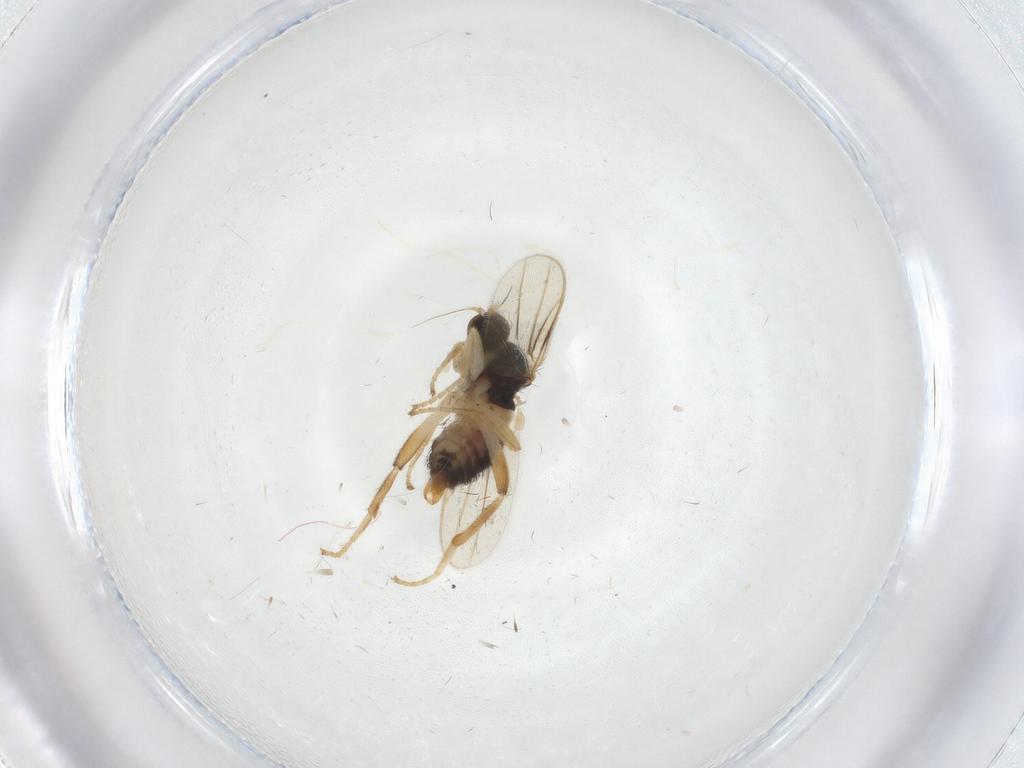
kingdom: Animalia
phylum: Arthropoda
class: Insecta
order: Diptera
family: Hybotidae
